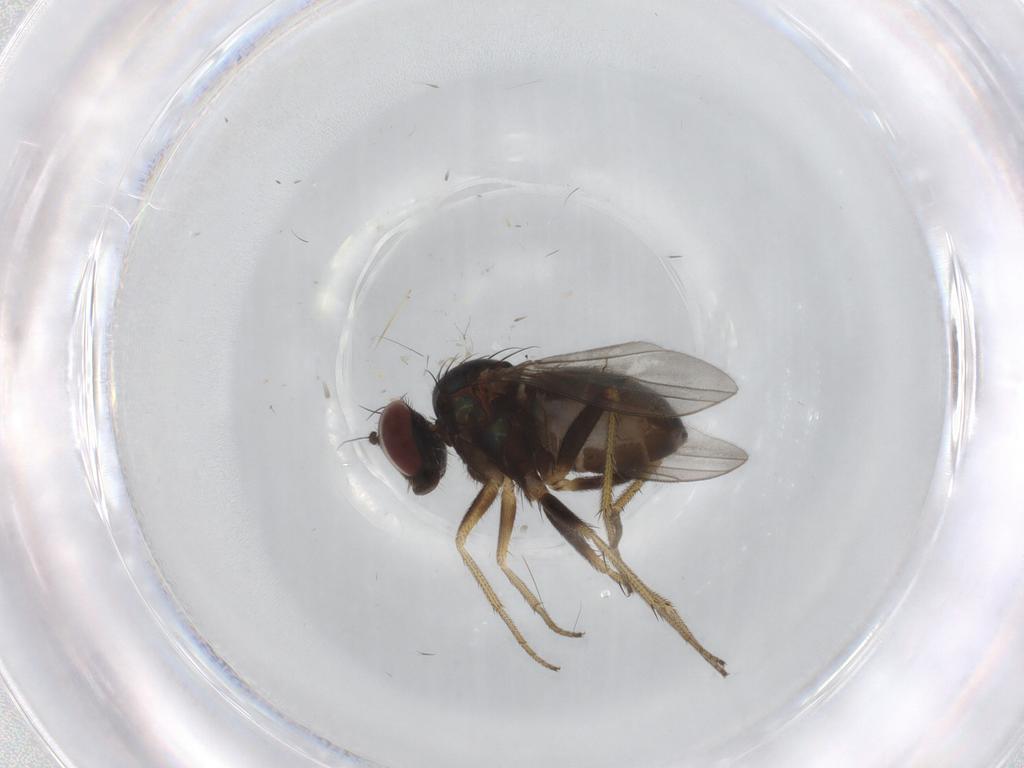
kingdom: Animalia
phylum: Arthropoda
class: Insecta
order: Diptera
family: Dolichopodidae
